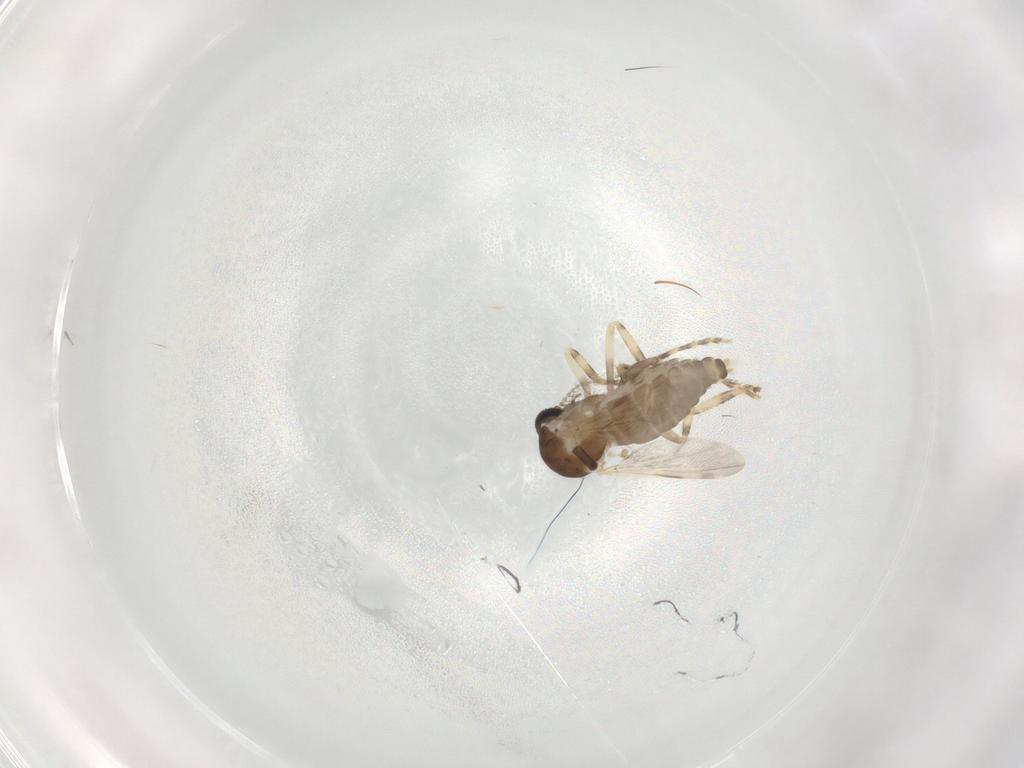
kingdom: Animalia
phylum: Arthropoda
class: Insecta
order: Diptera
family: Ceratopogonidae
